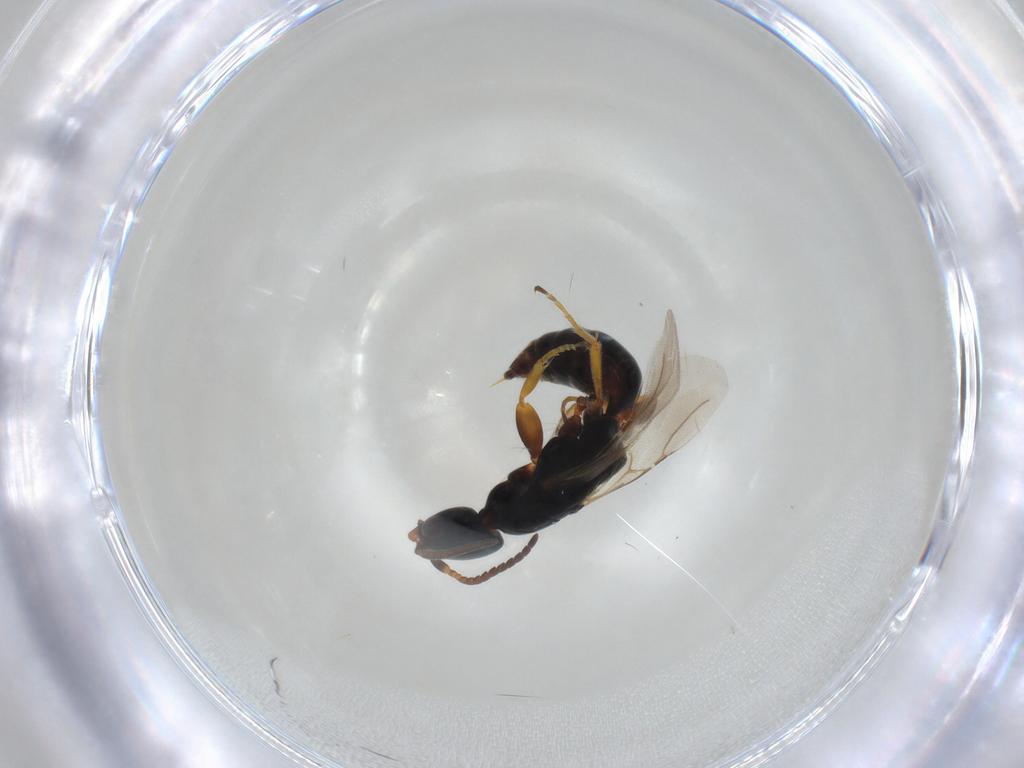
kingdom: Animalia
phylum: Arthropoda
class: Insecta
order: Hymenoptera
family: Bethylidae
